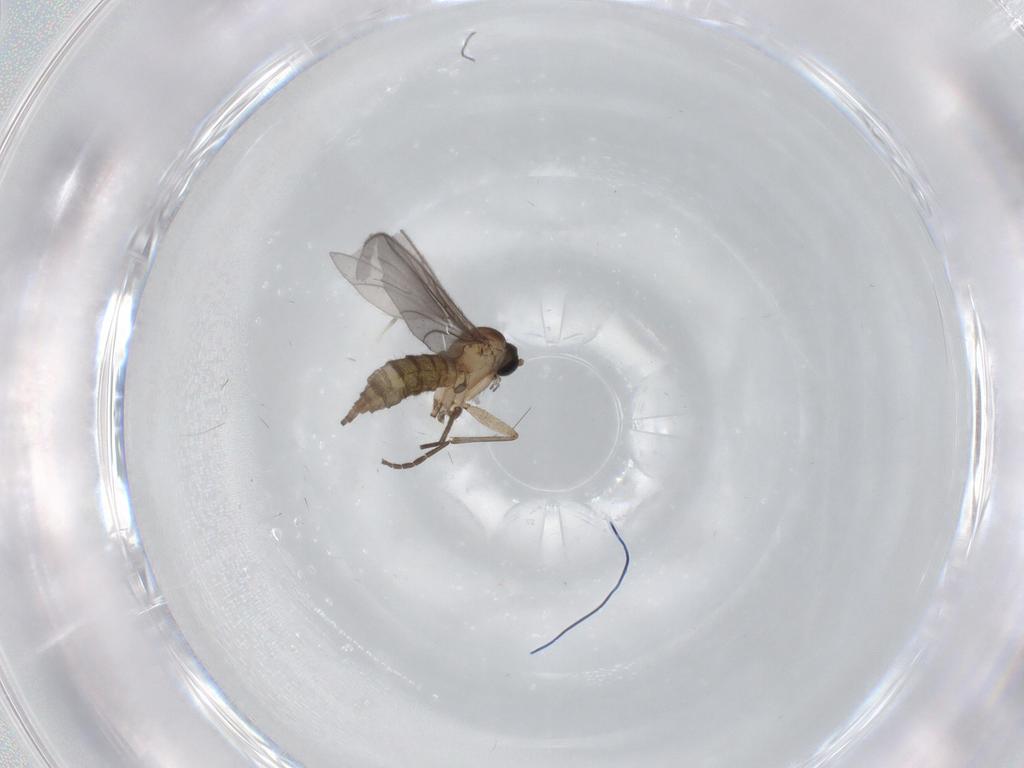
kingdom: Animalia
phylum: Arthropoda
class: Insecta
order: Diptera
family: Sciaridae
